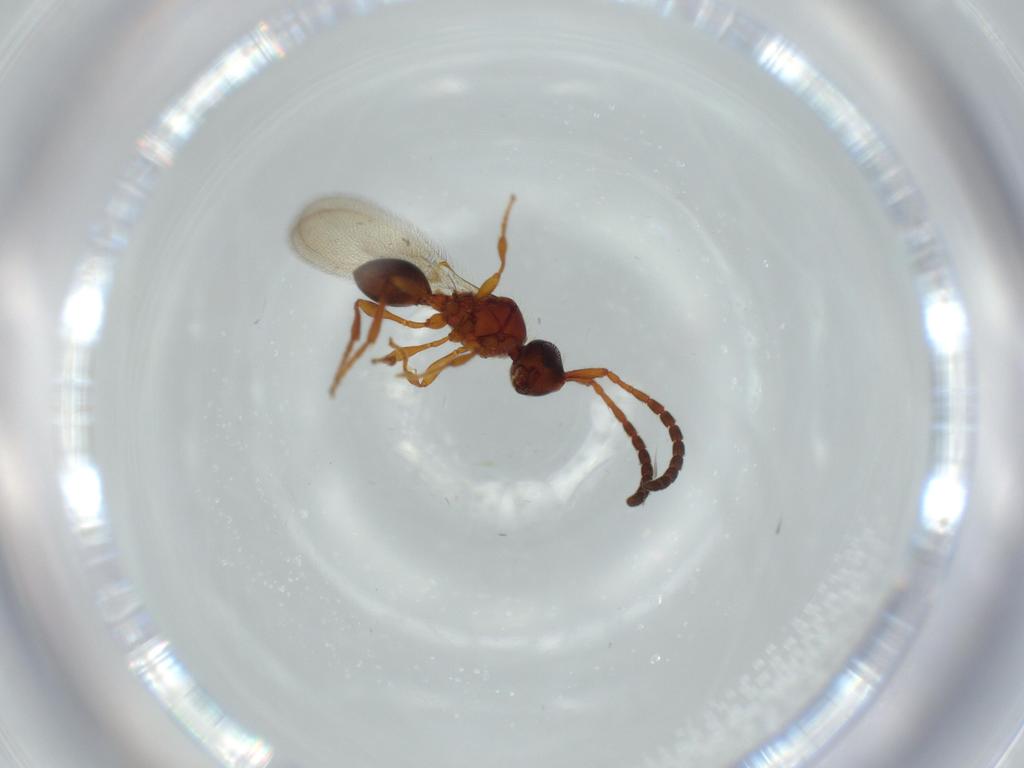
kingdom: Animalia
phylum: Arthropoda
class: Insecta
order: Hymenoptera
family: Diapriidae
